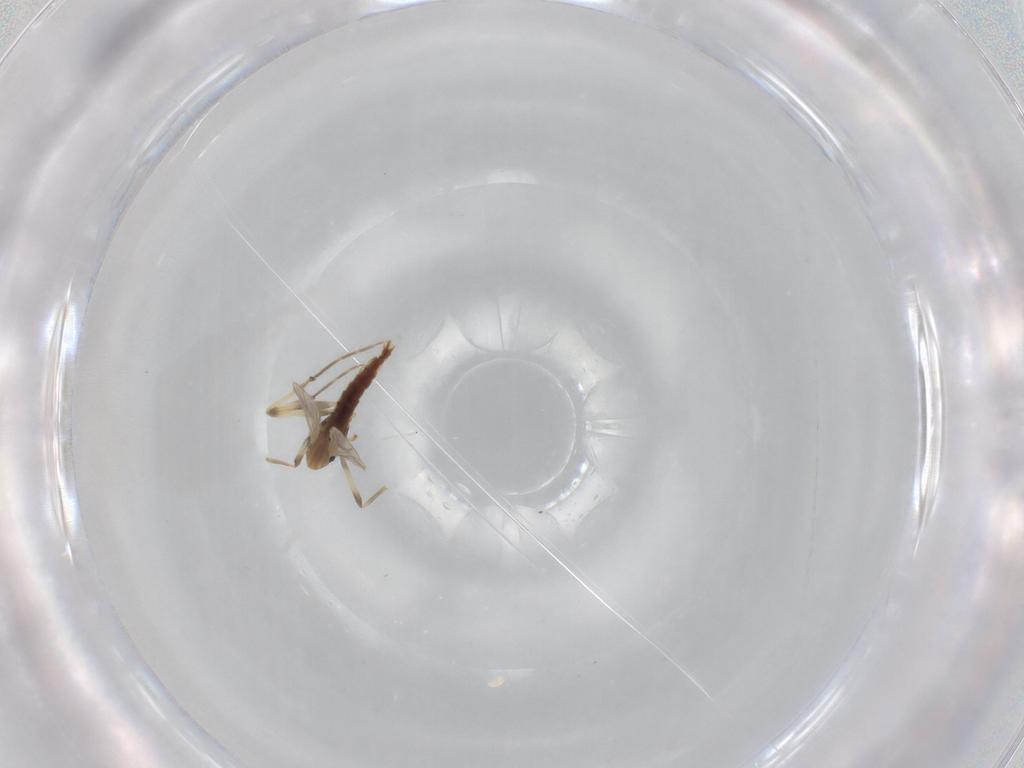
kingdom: Animalia
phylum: Arthropoda
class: Insecta
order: Diptera
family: Chironomidae
